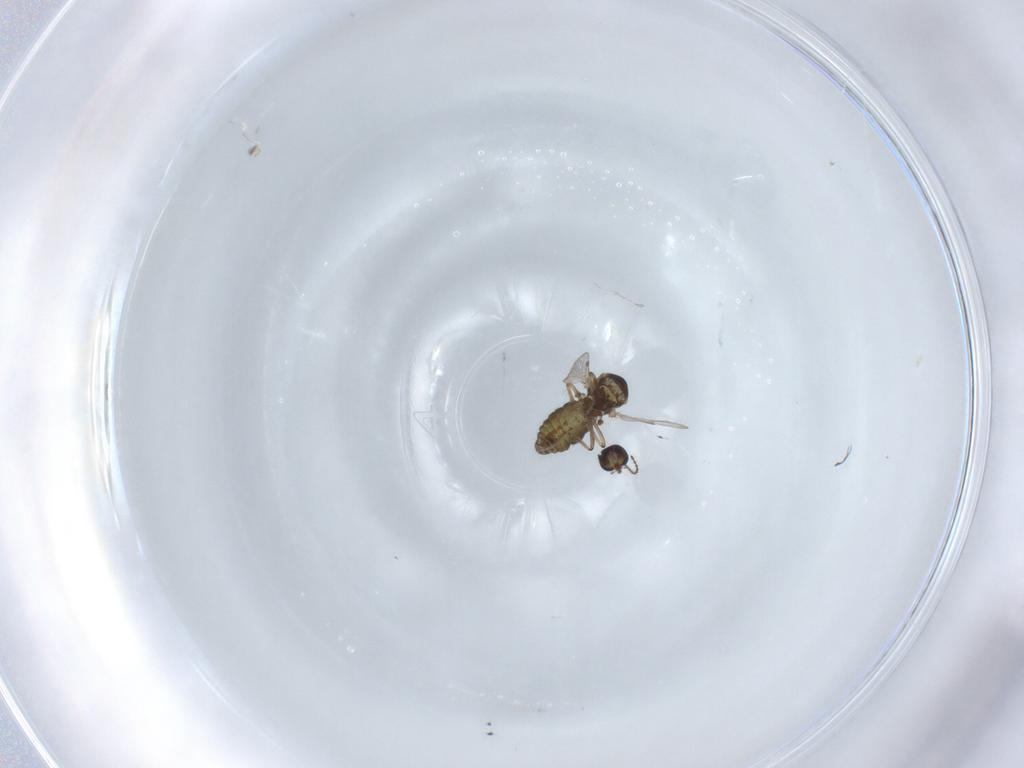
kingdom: Animalia
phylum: Arthropoda
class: Insecta
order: Diptera
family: Ceratopogonidae
